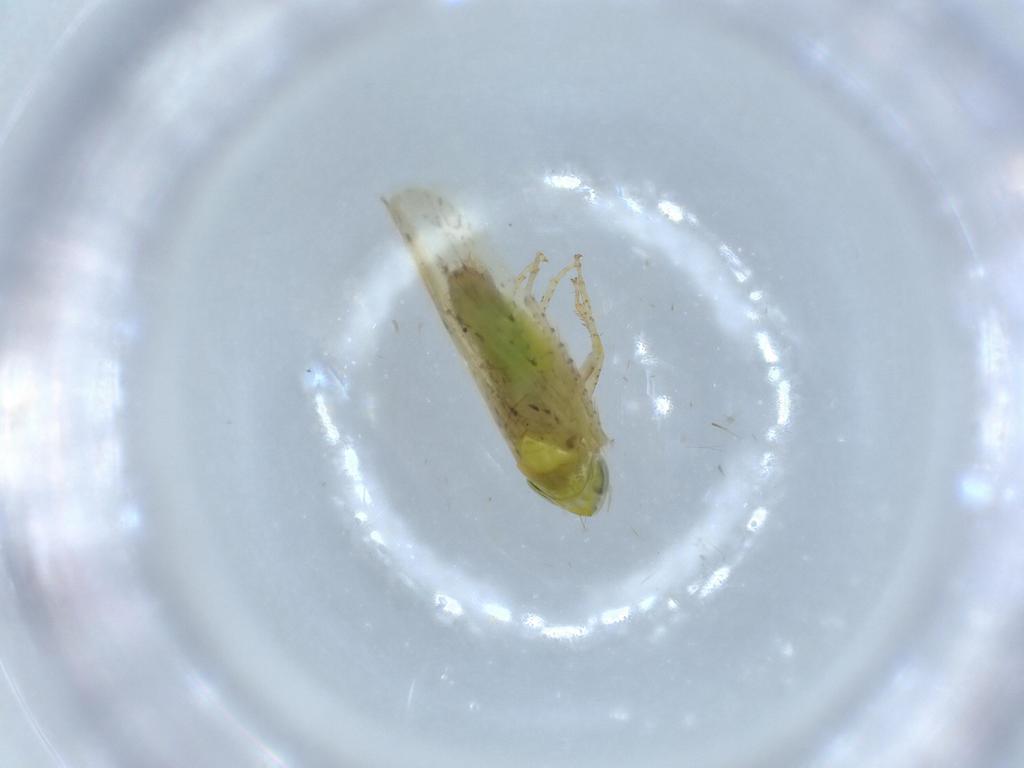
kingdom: Animalia
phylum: Arthropoda
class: Insecta
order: Hemiptera
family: Cicadellidae
